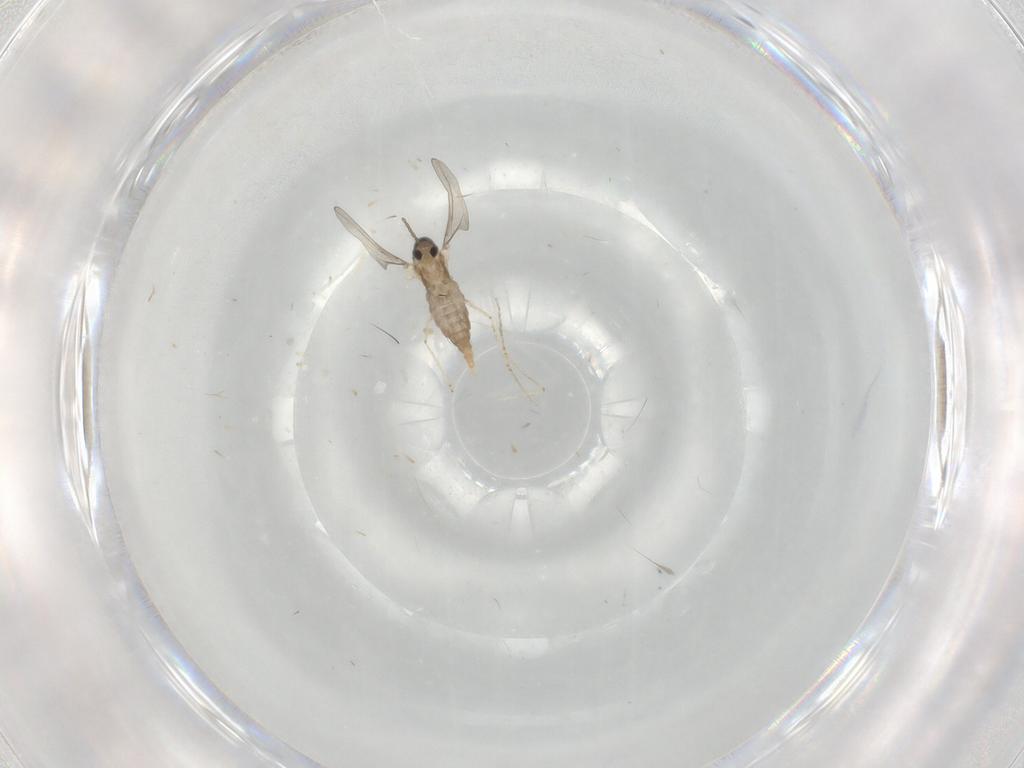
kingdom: Animalia
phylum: Arthropoda
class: Insecta
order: Diptera
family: Cecidomyiidae
